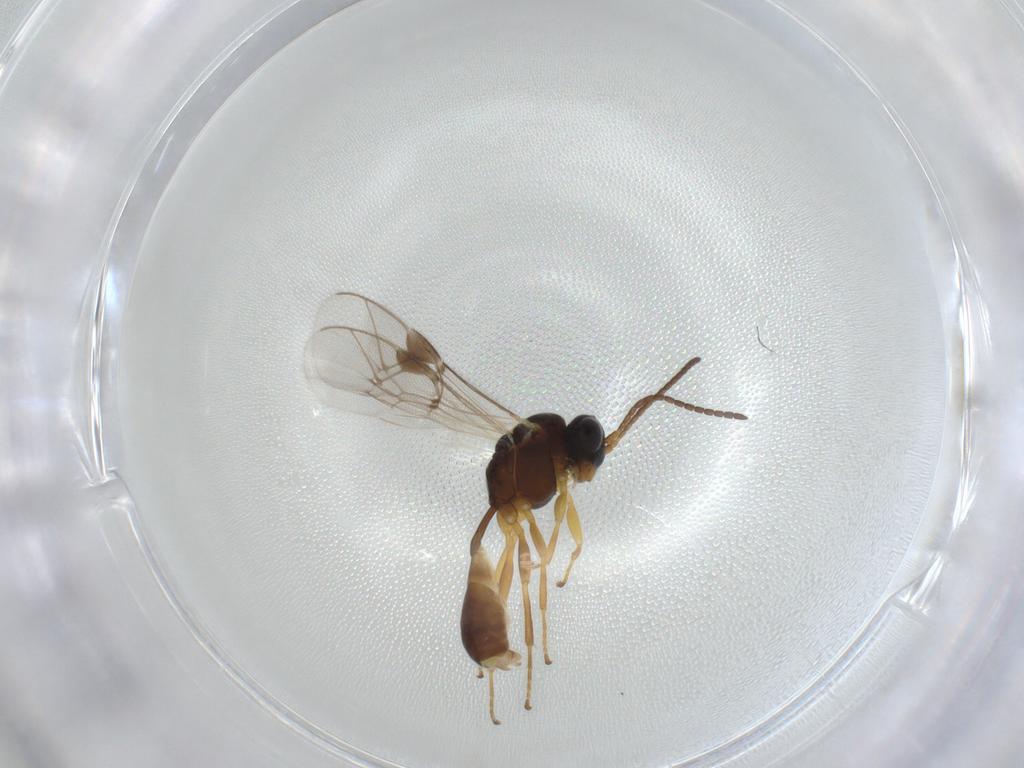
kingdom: Animalia
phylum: Arthropoda
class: Insecta
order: Hymenoptera
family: Ichneumonidae
